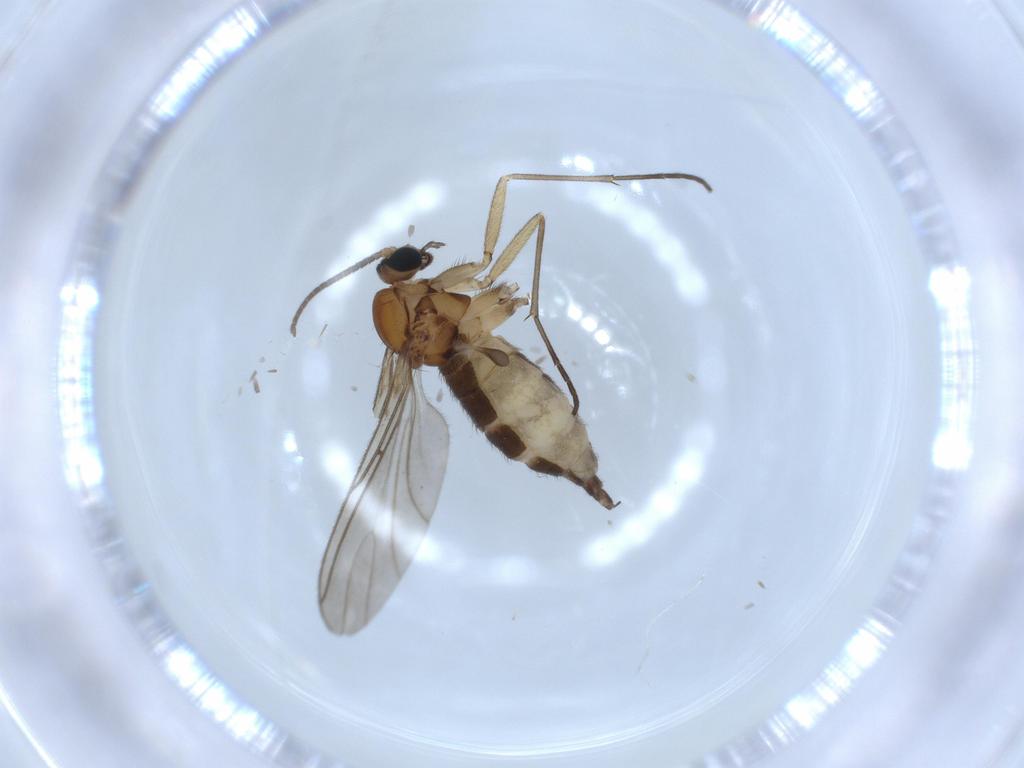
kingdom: Animalia
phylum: Arthropoda
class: Insecta
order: Diptera
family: Sciaridae
